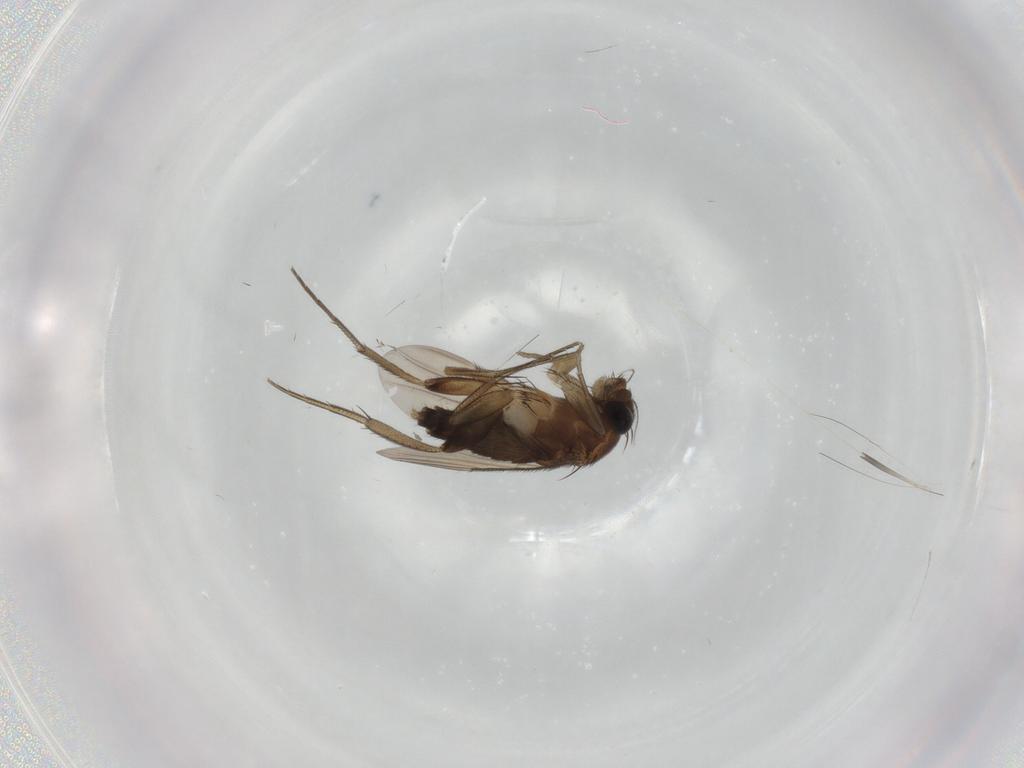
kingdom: Animalia
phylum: Arthropoda
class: Insecta
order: Diptera
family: Phoridae
